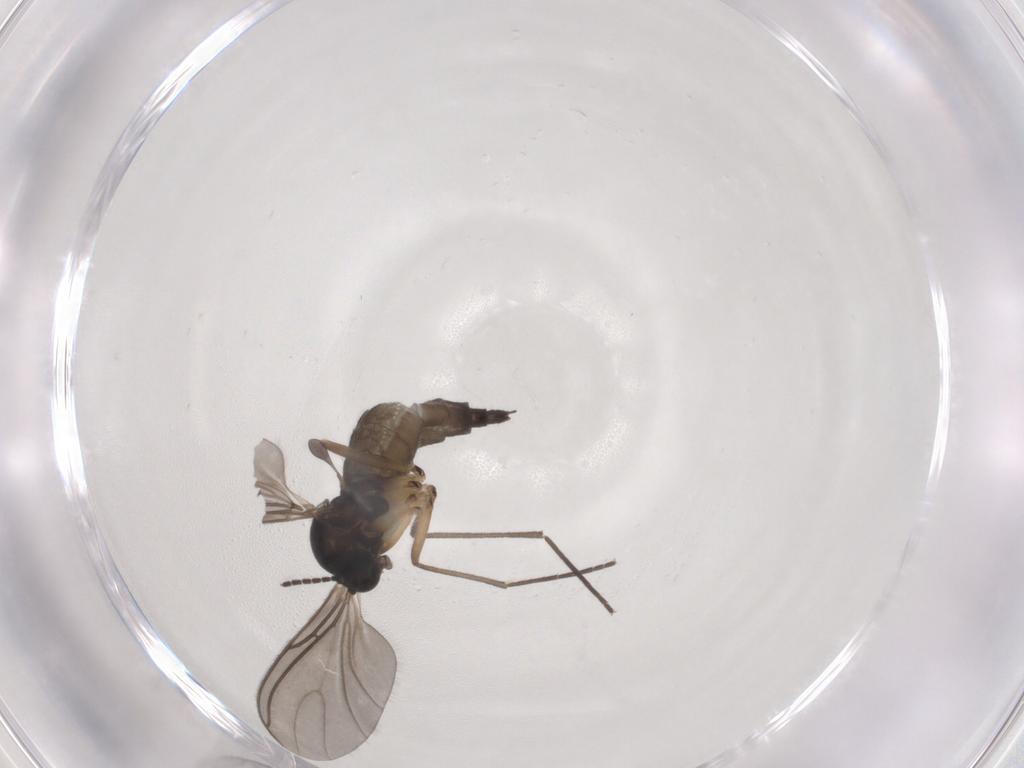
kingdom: Animalia
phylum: Arthropoda
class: Insecta
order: Diptera
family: Sciaridae
